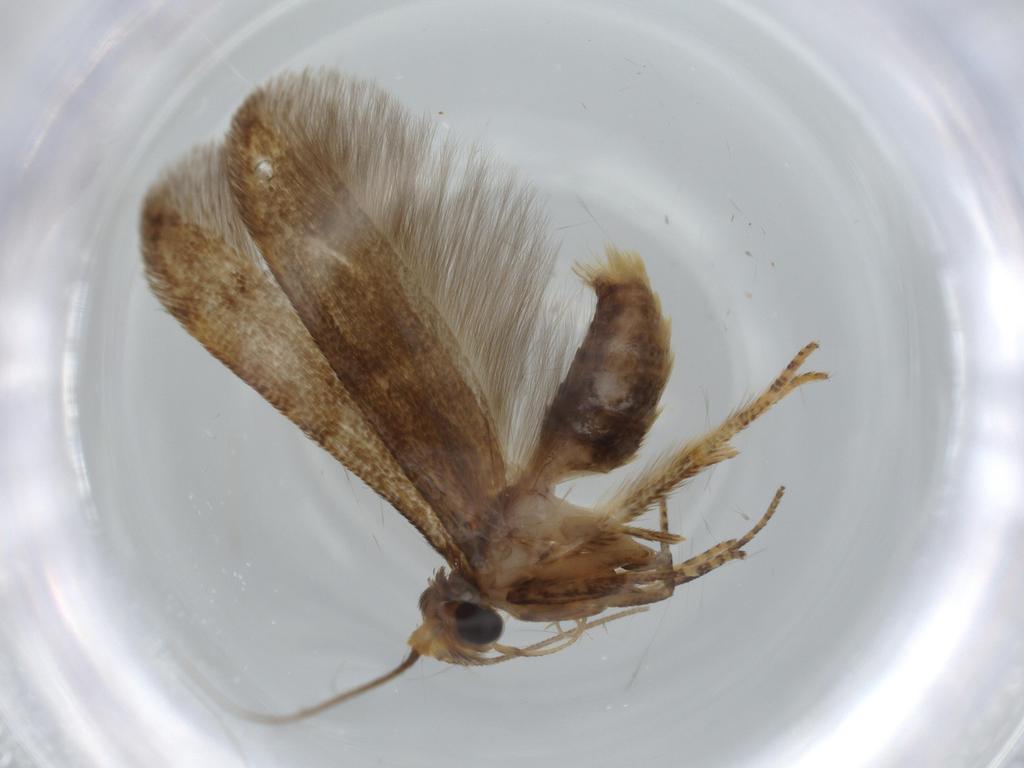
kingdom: Animalia
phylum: Arthropoda
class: Insecta
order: Lepidoptera
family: Coleophoridae
